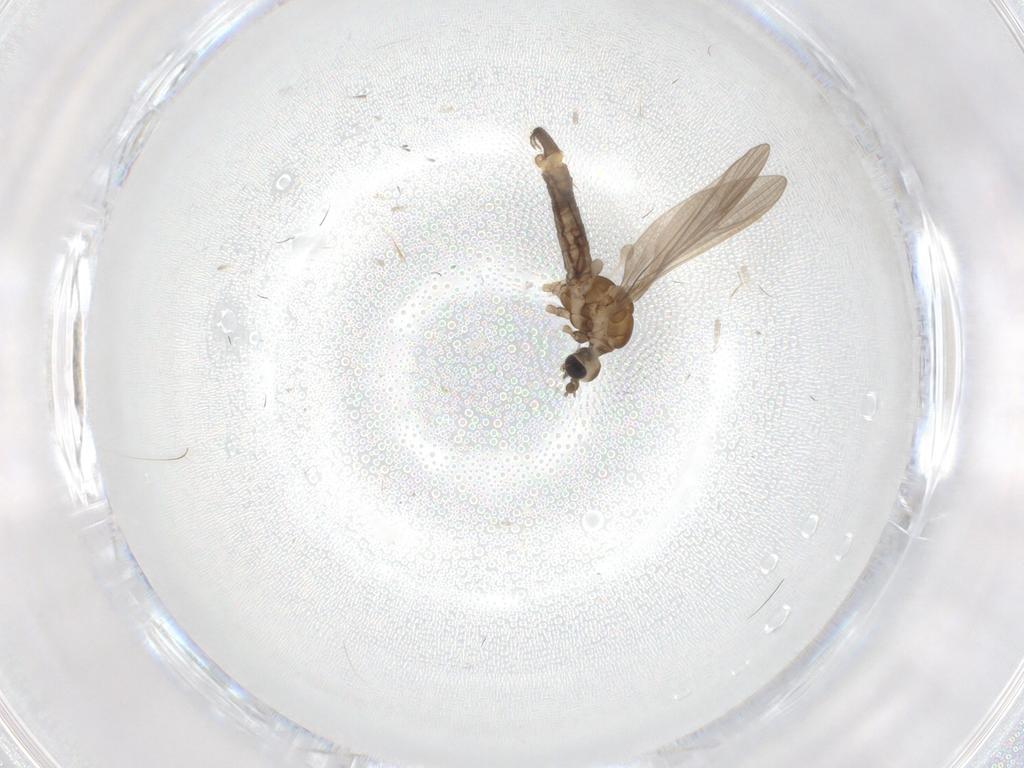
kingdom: Animalia
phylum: Arthropoda
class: Insecta
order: Diptera
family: Limoniidae
